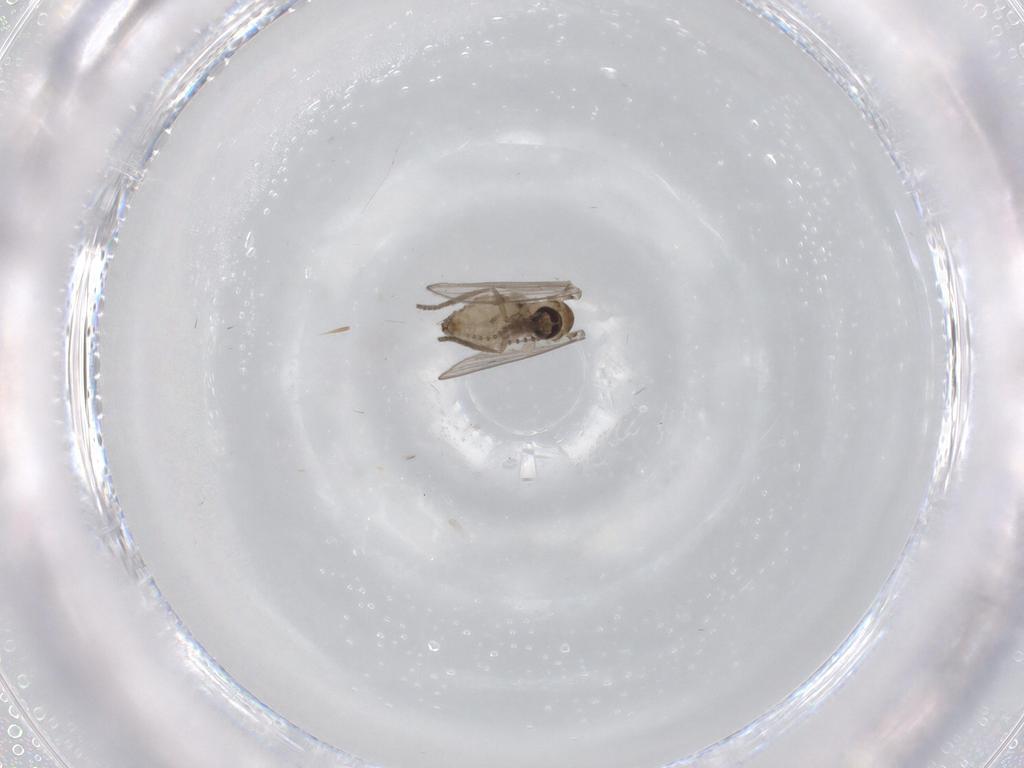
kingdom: Animalia
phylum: Arthropoda
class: Insecta
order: Diptera
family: Psychodidae
